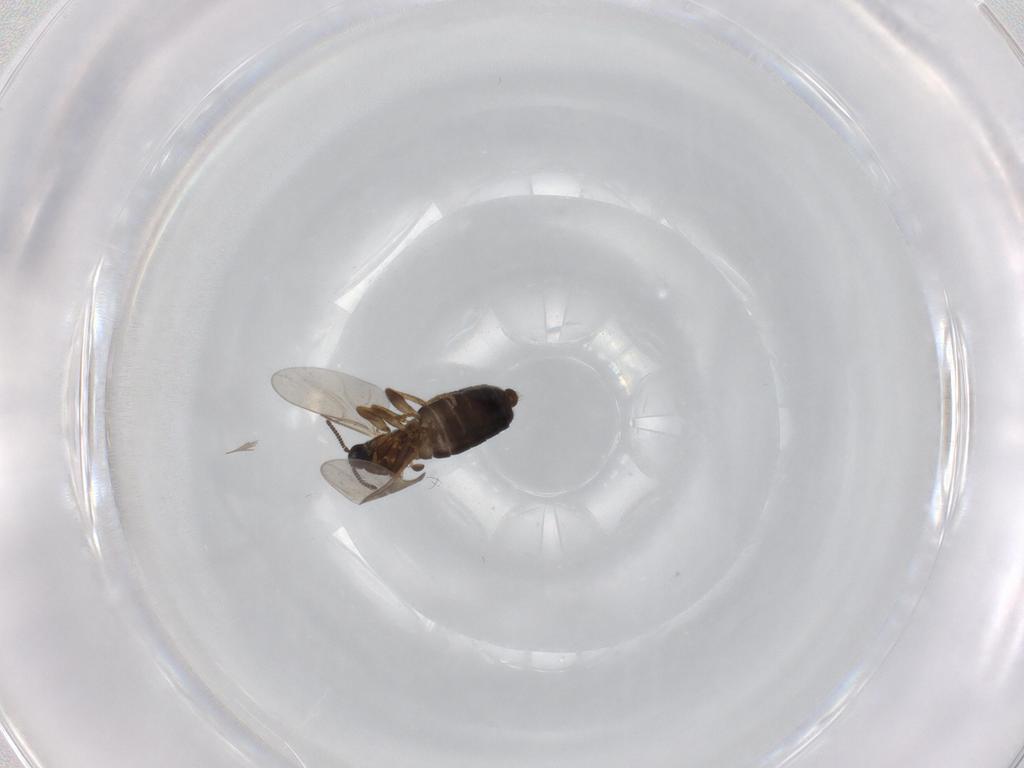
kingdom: Animalia
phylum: Arthropoda
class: Insecta
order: Diptera
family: Scatopsidae
